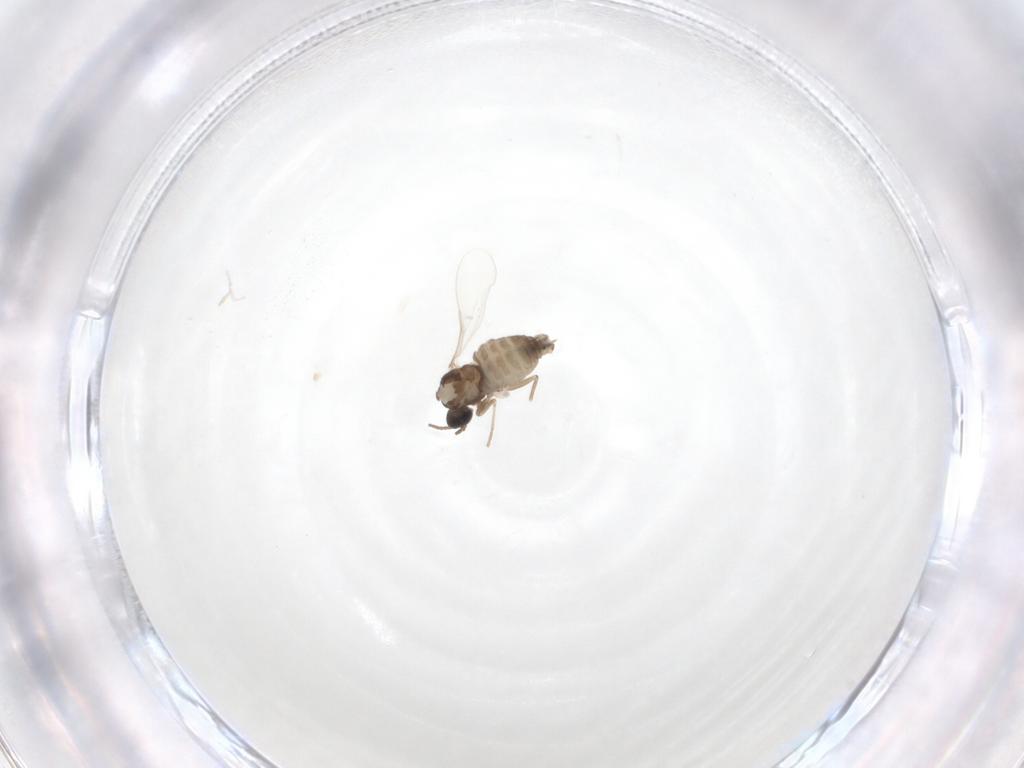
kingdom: Animalia
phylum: Arthropoda
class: Insecta
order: Diptera
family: Cecidomyiidae
